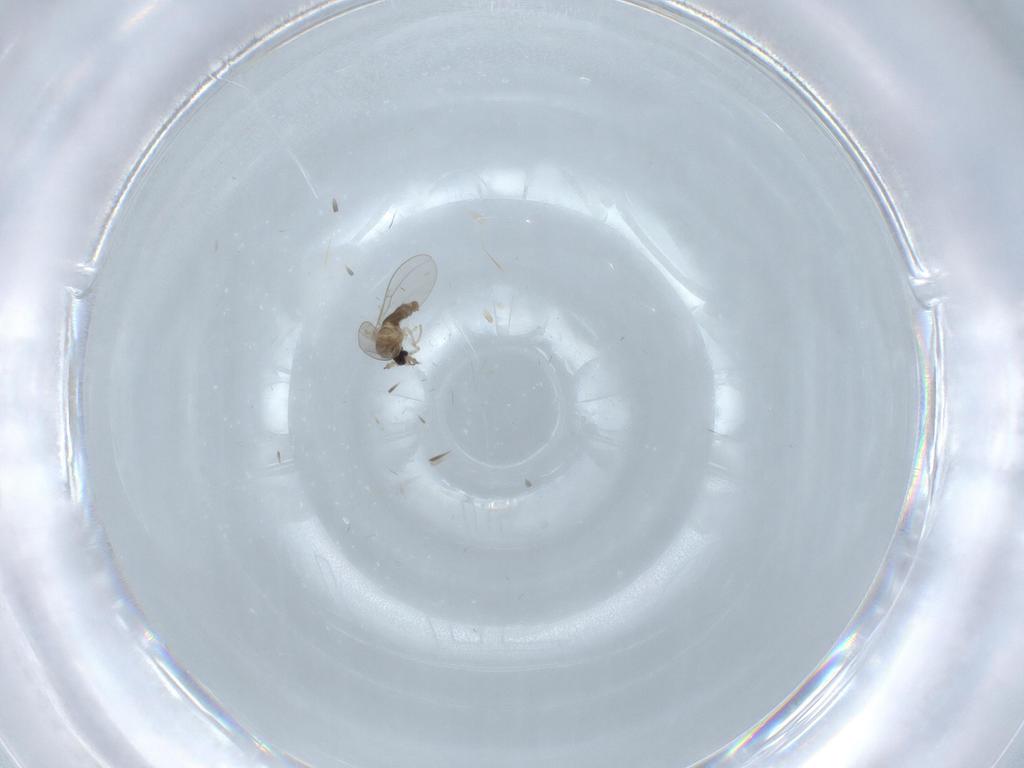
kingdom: Animalia
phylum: Arthropoda
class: Insecta
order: Diptera
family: Cecidomyiidae
